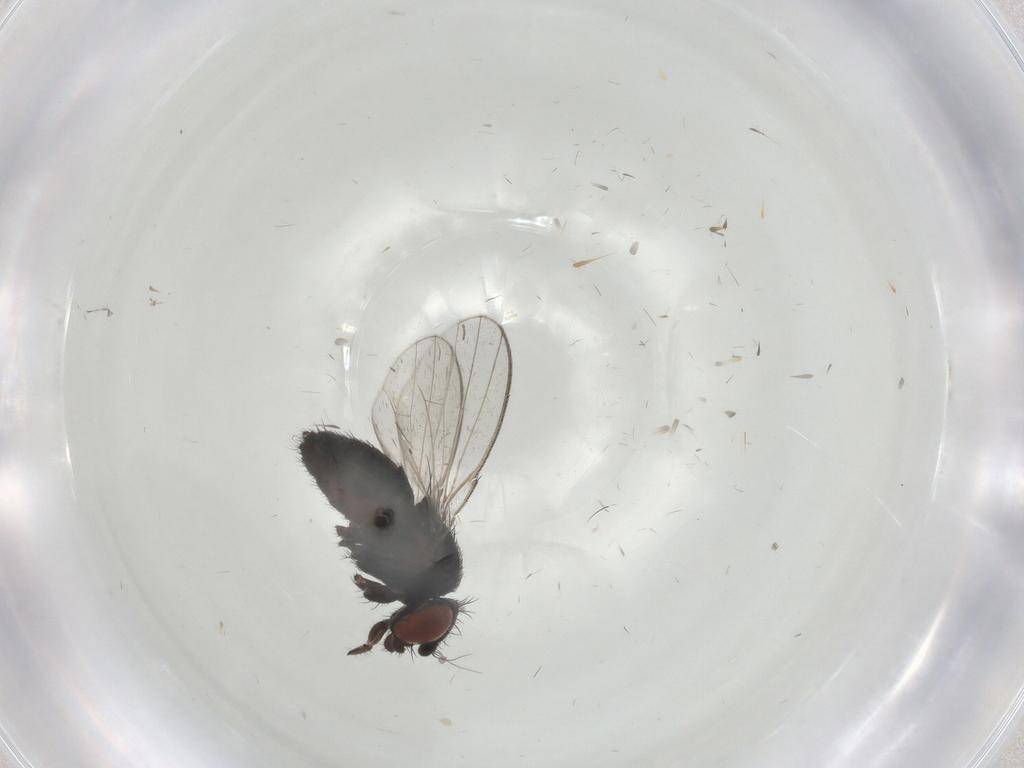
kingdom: Animalia
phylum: Arthropoda
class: Insecta
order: Diptera
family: Milichiidae
